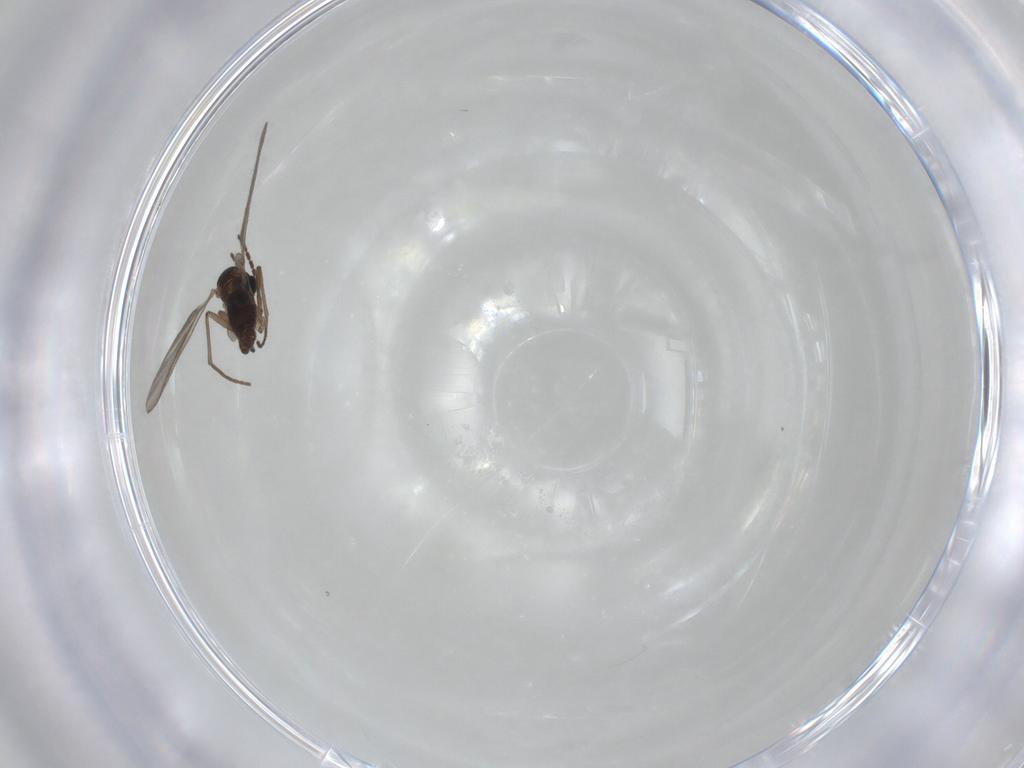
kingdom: Animalia
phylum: Arthropoda
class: Insecta
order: Diptera
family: Sciaridae
